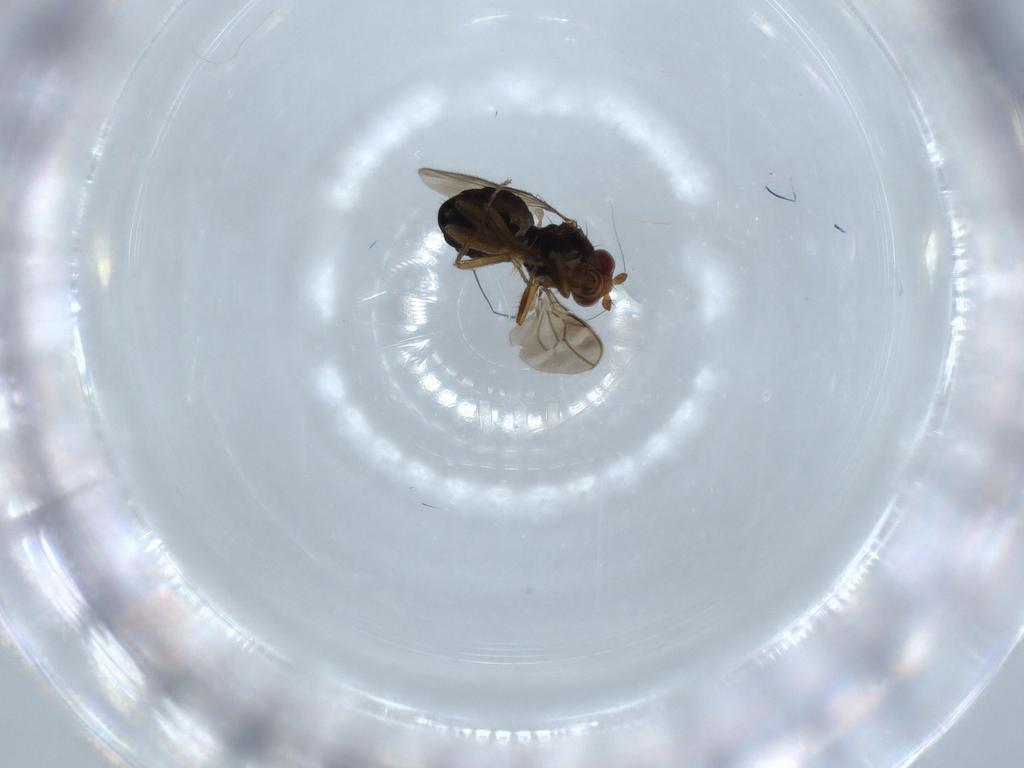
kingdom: Animalia
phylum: Arthropoda
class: Insecta
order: Diptera
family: Sphaeroceridae
